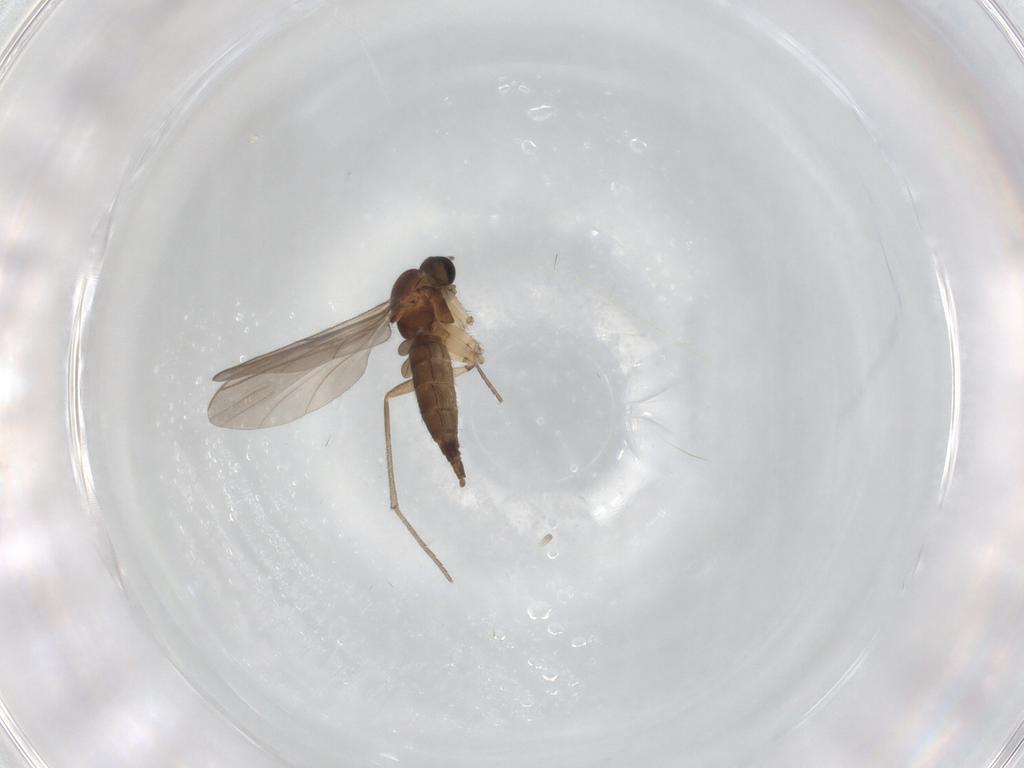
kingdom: Animalia
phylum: Arthropoda
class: Insecta
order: Diptera
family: Sciaridae
